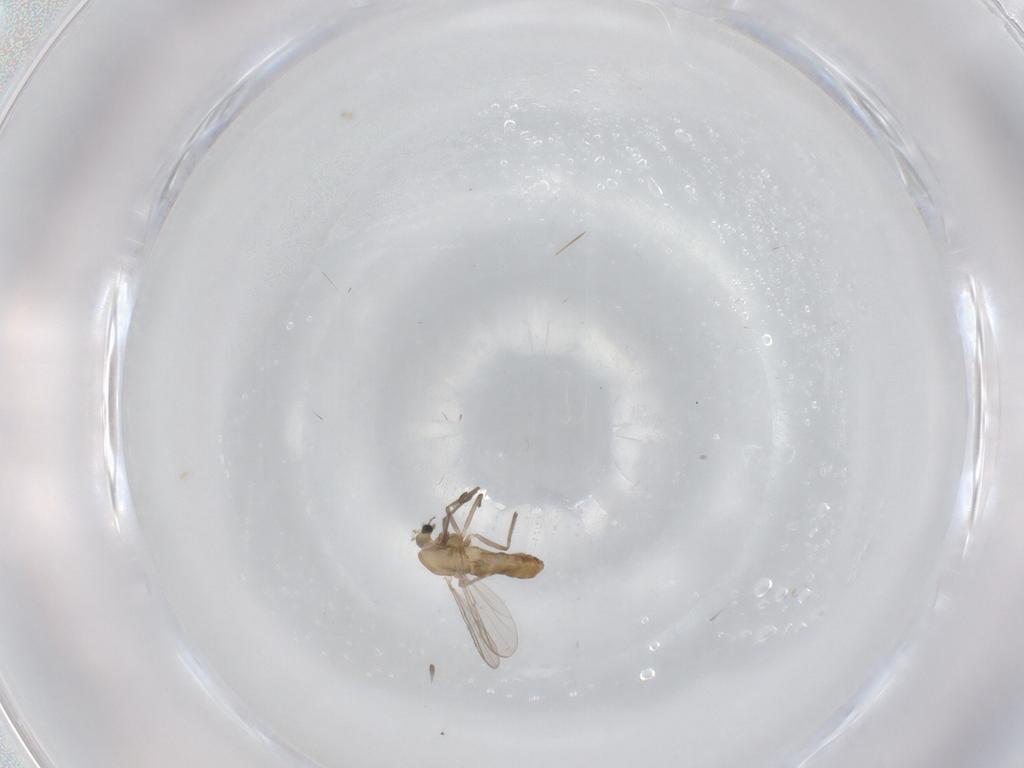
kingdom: Animalia
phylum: Arthropoda
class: Insecta
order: Diptera
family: Chironomidae
